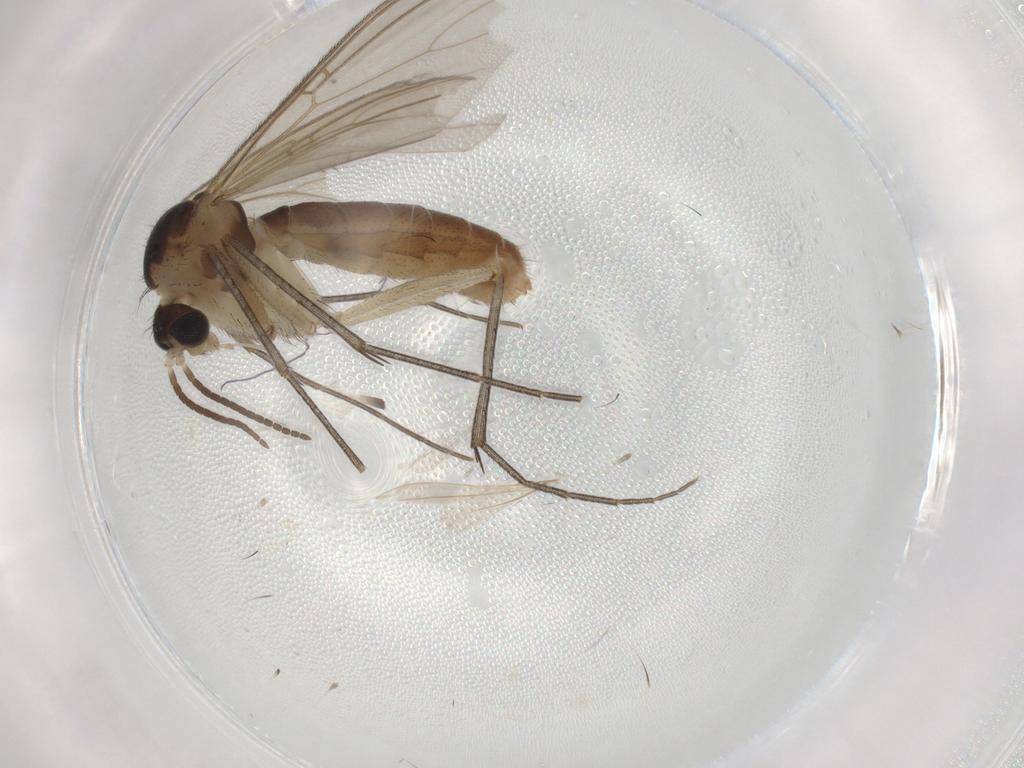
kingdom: Animalia
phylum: Arthropoda
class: Insecta
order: Diptera
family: Mycetophilidae
